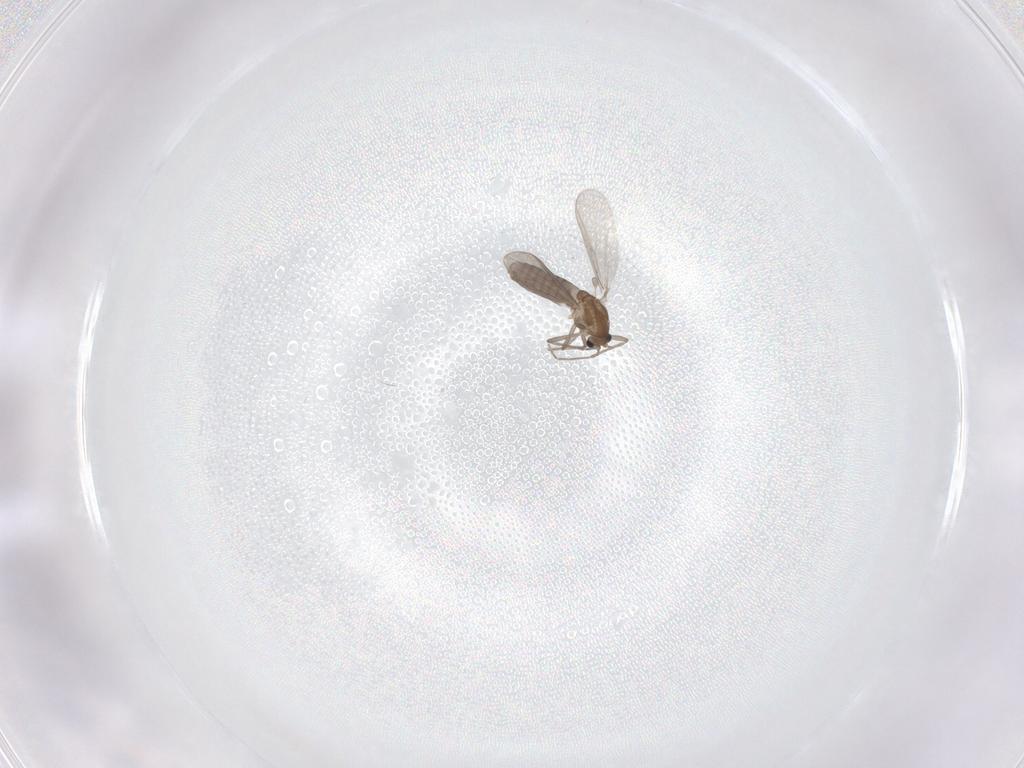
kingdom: Animalia
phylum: Arthropoda
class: Insecta
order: Diptera
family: Chironomidae
